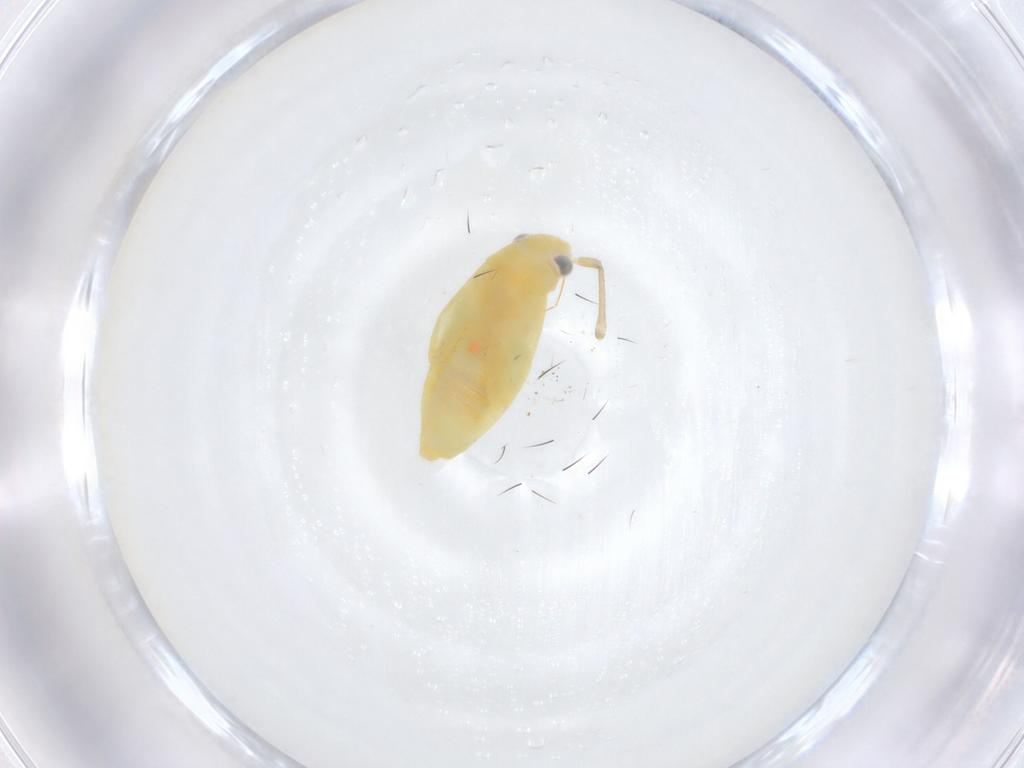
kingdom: Animalia
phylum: Arthropoda
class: Insecta
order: Hemiptera
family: Miridae
